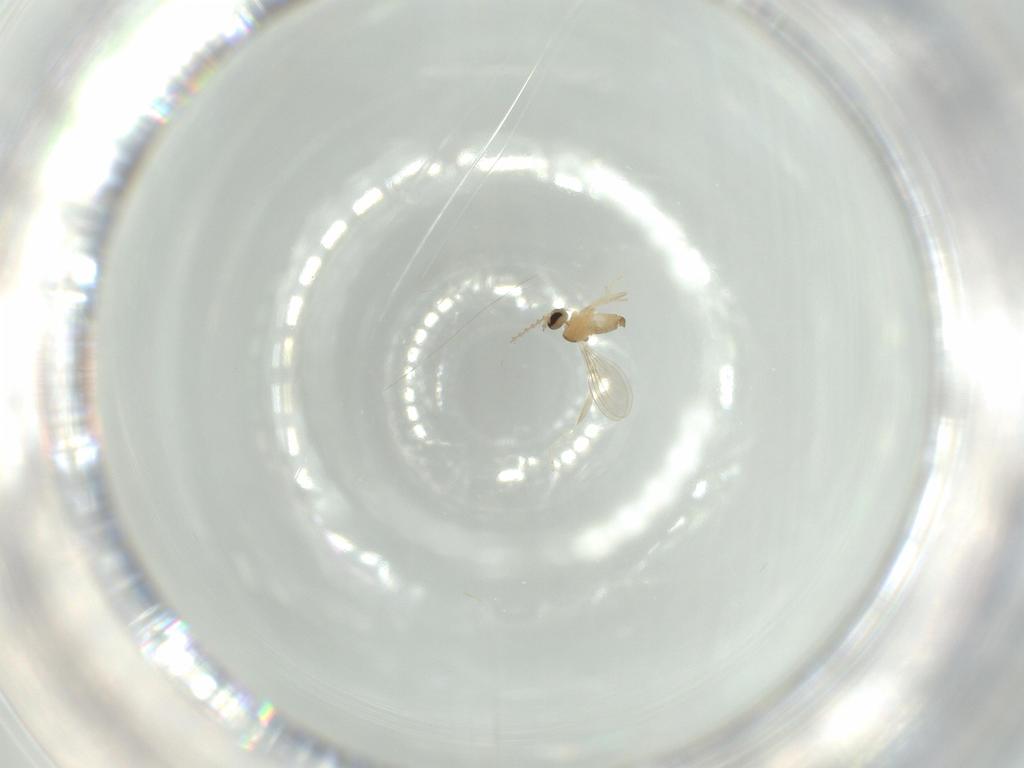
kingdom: Animalia
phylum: Arthropoda
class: Insecta
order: Diptera
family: Cecidomyiidae
